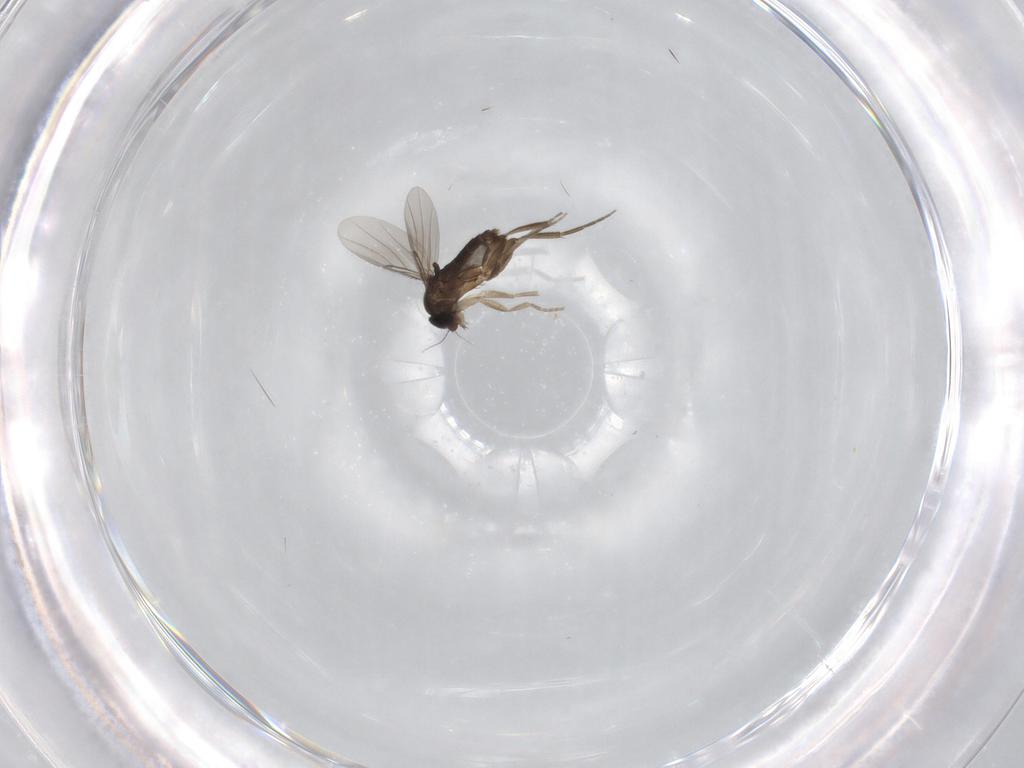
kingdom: Animalia
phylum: Arthropoda
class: Insecta
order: Diptera
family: Phoridae
